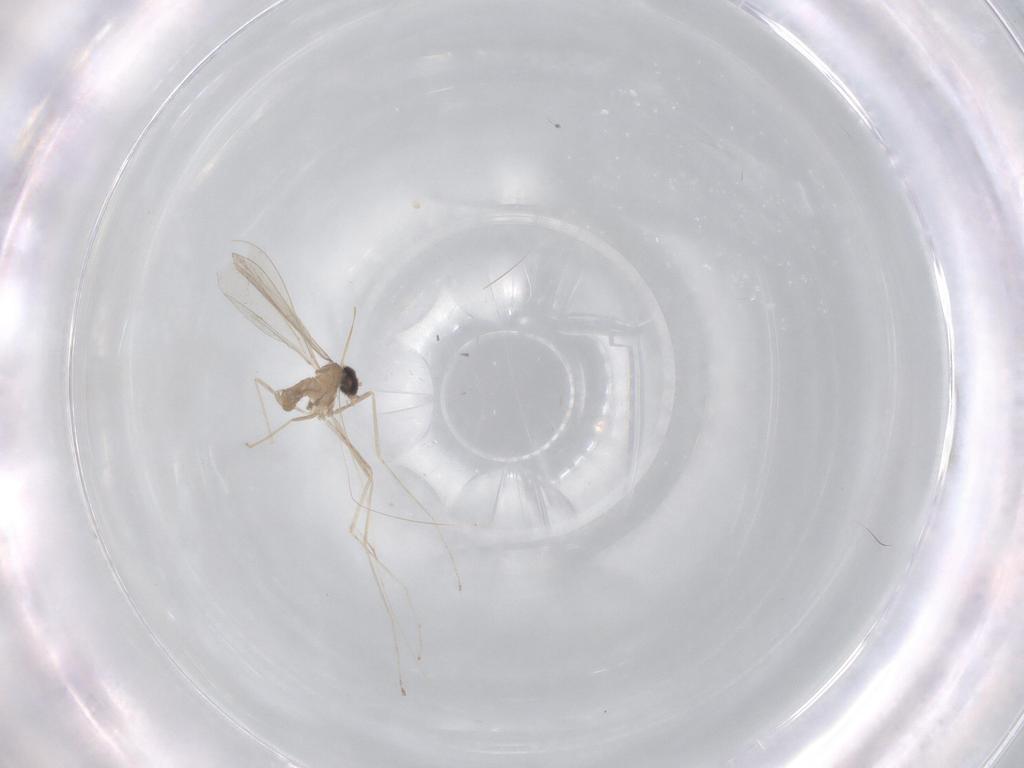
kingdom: Animalia
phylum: Arthropoda
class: Insecta
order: Diptera
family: Cecidomyiidae
